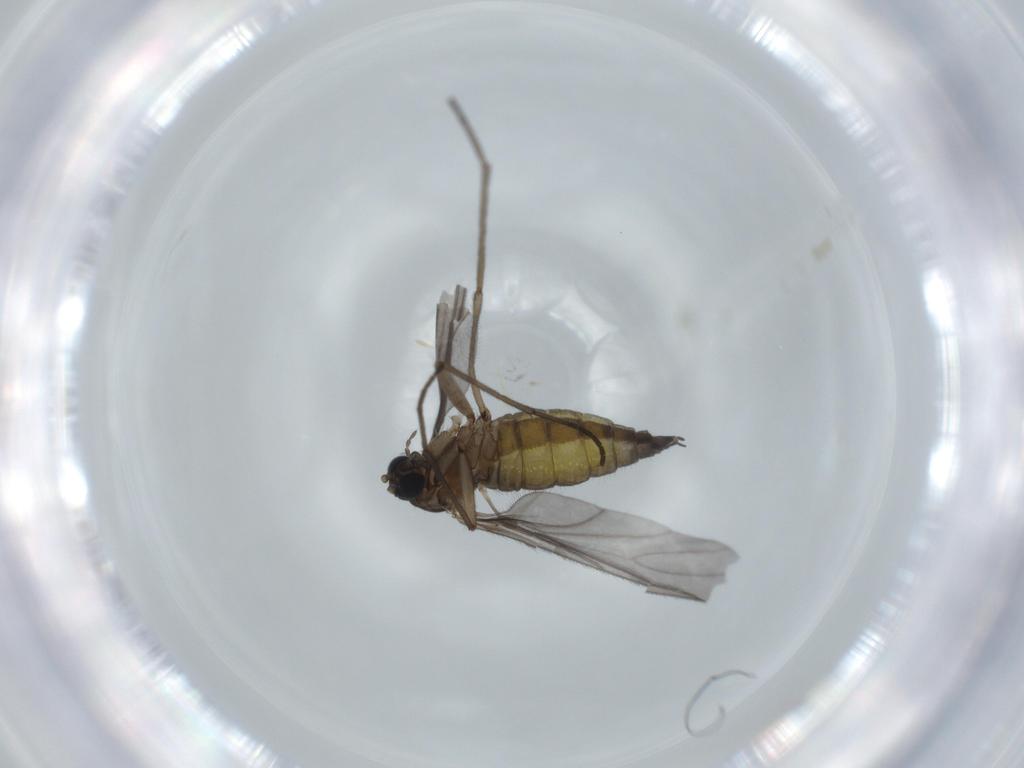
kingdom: Animalia
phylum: Arthropoda
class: Insecta
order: Diptera
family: Sciaridae
